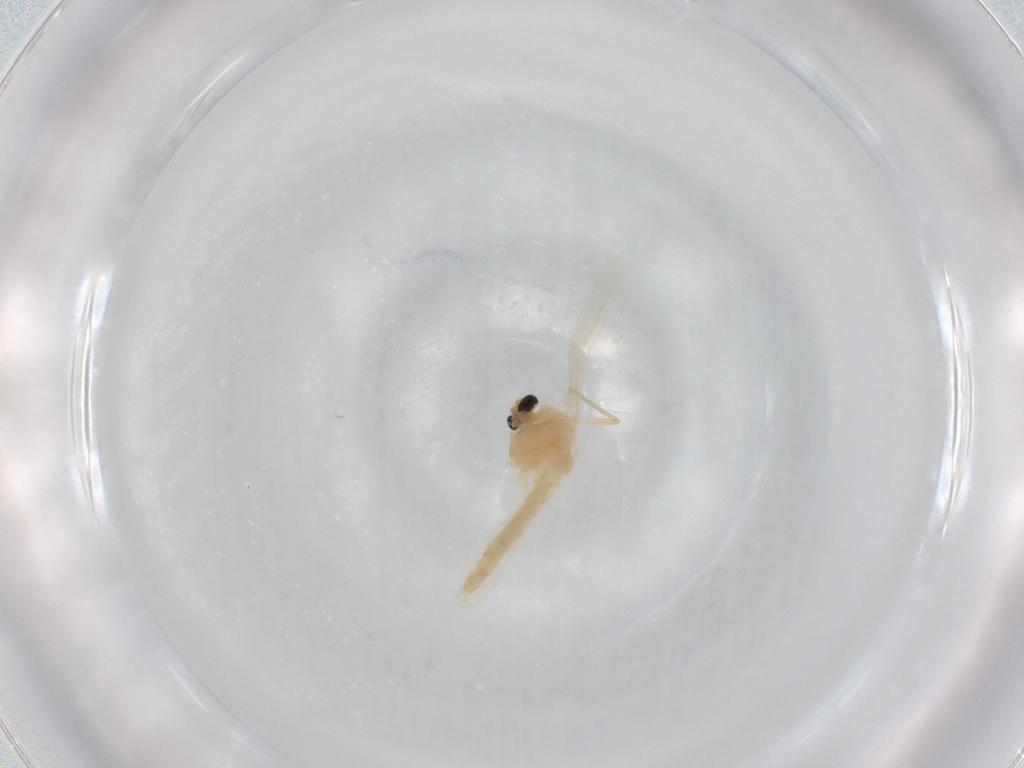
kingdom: Animalia
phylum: Arthropoda
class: Insecta
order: Diptera
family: Chironomidae
